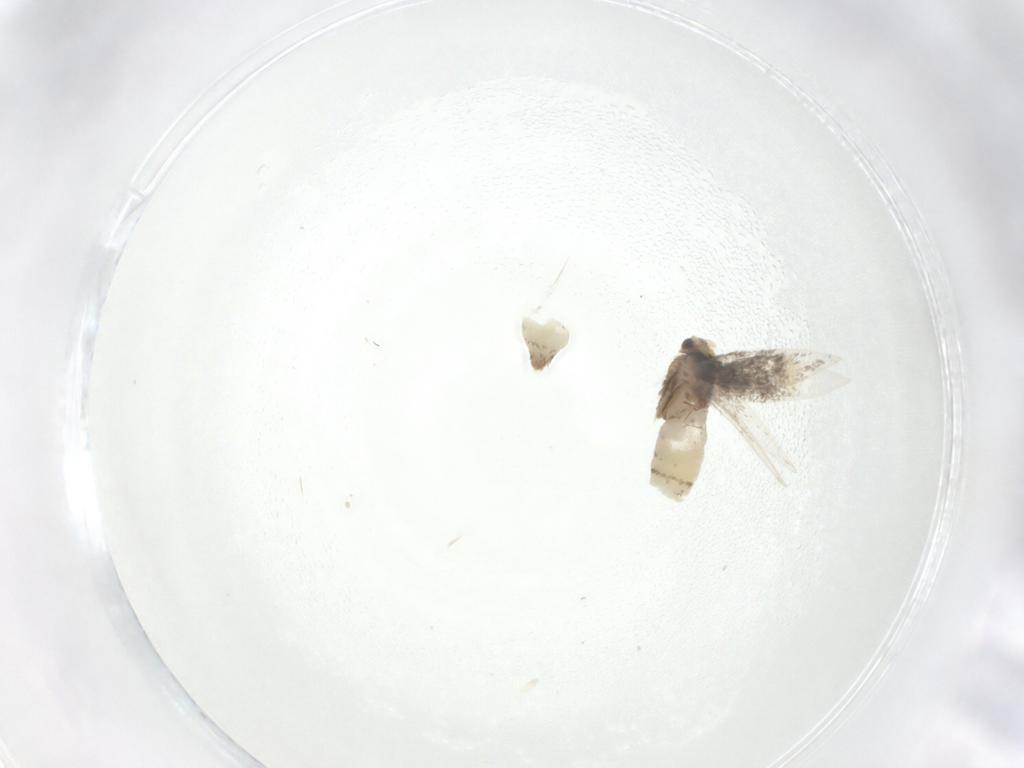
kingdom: Animalia
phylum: Arthropoda
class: Insecta
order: Lepidoptera
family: Nepticulidae
